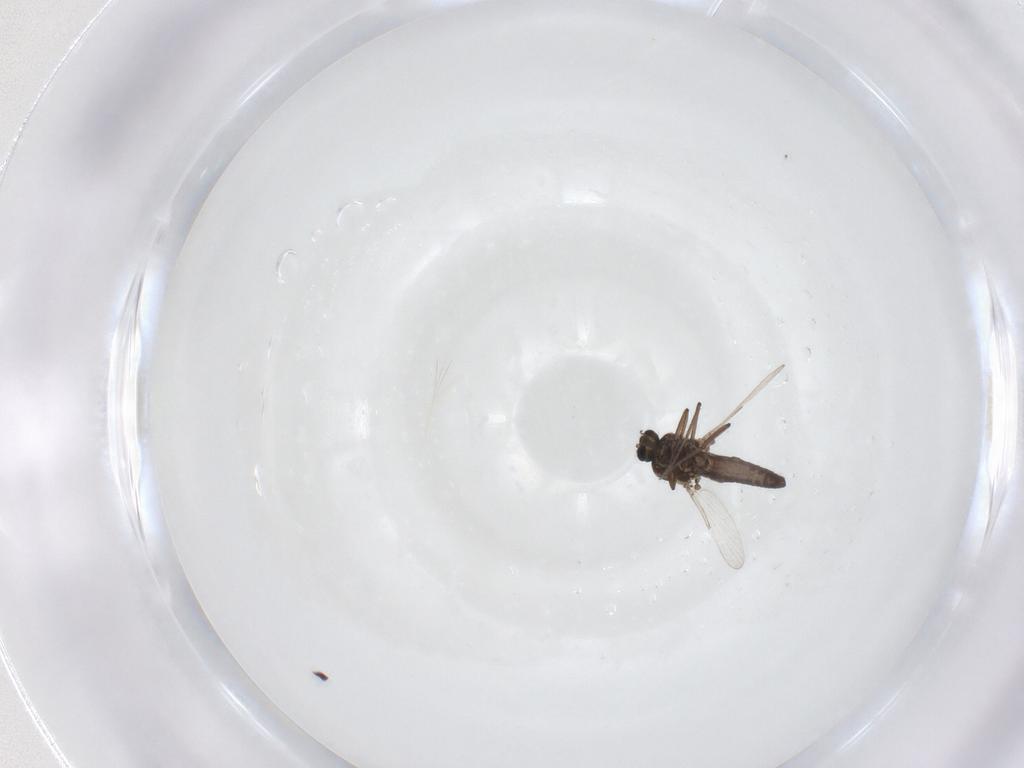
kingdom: Animalia
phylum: Arthropoda
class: Insecta
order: Diptera
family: Ceratopogonidae
